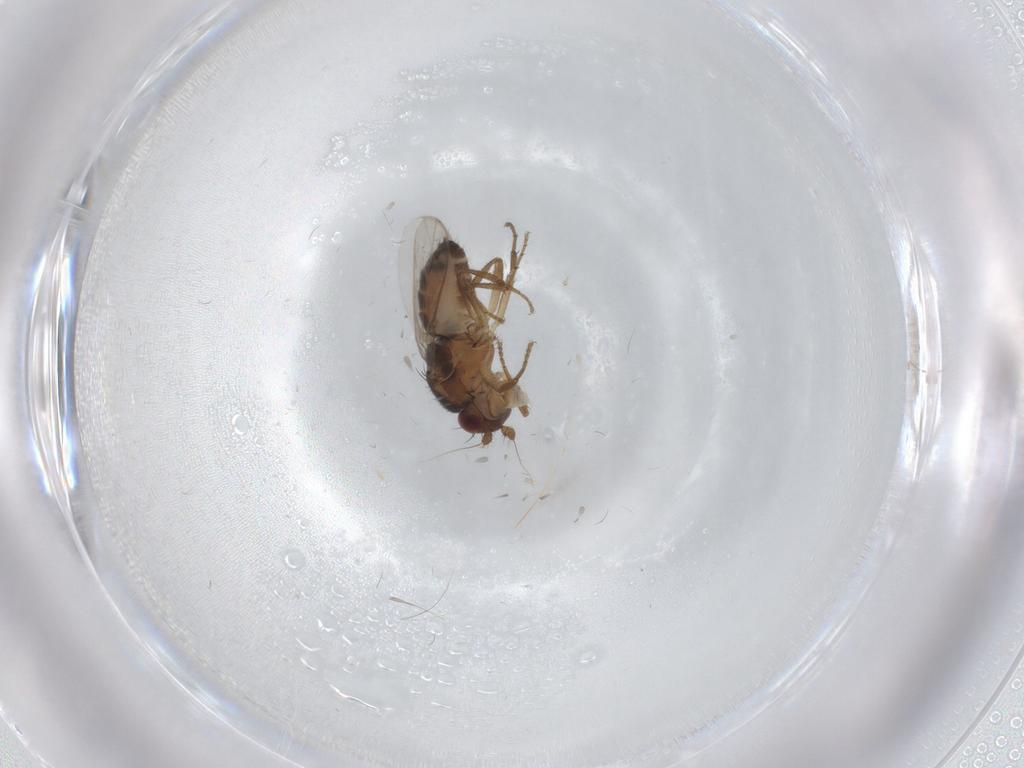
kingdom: Animalia
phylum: Arthropoda
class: Insecta
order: Diptera
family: Sphaeroceridae
